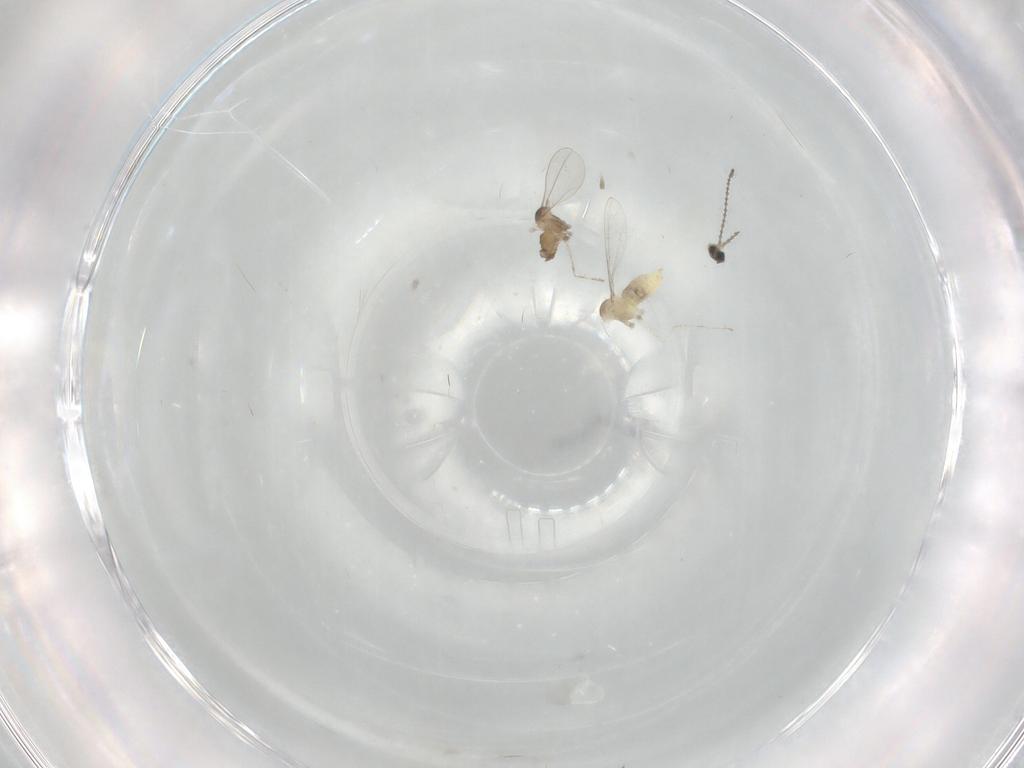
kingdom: Animalia
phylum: Arthropoda
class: Insecta
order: Diptera
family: Cecidomyiidae
